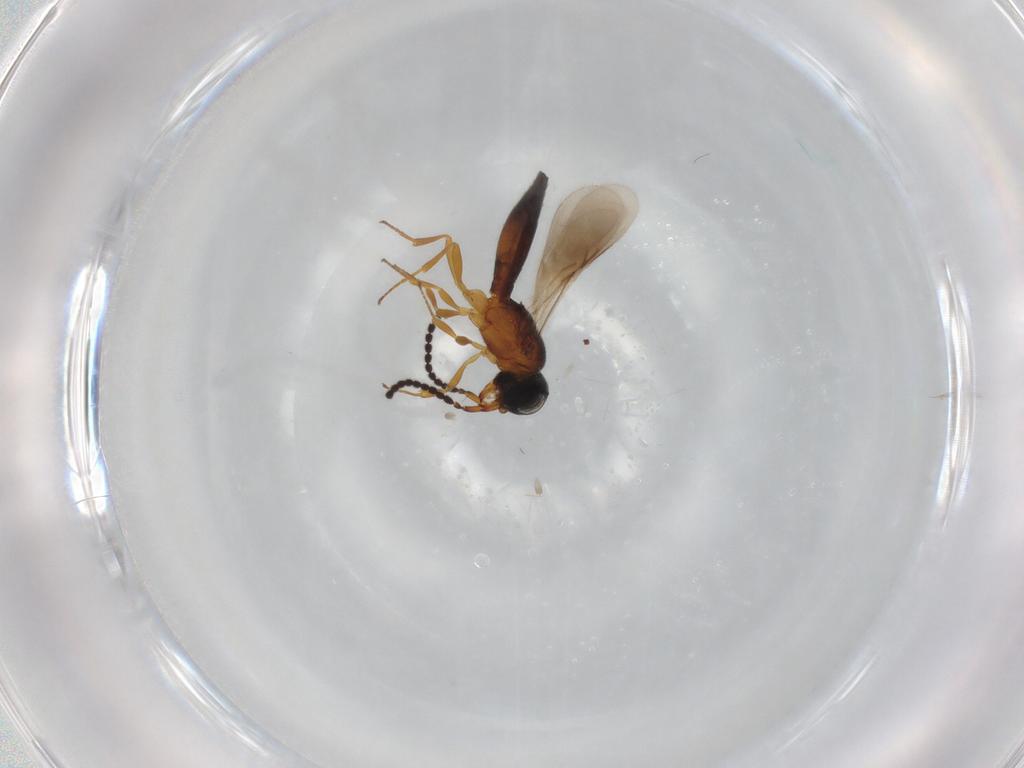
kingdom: Animalia
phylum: Arthropoda
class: Insecta
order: Hymenoptera
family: Scelionidae
